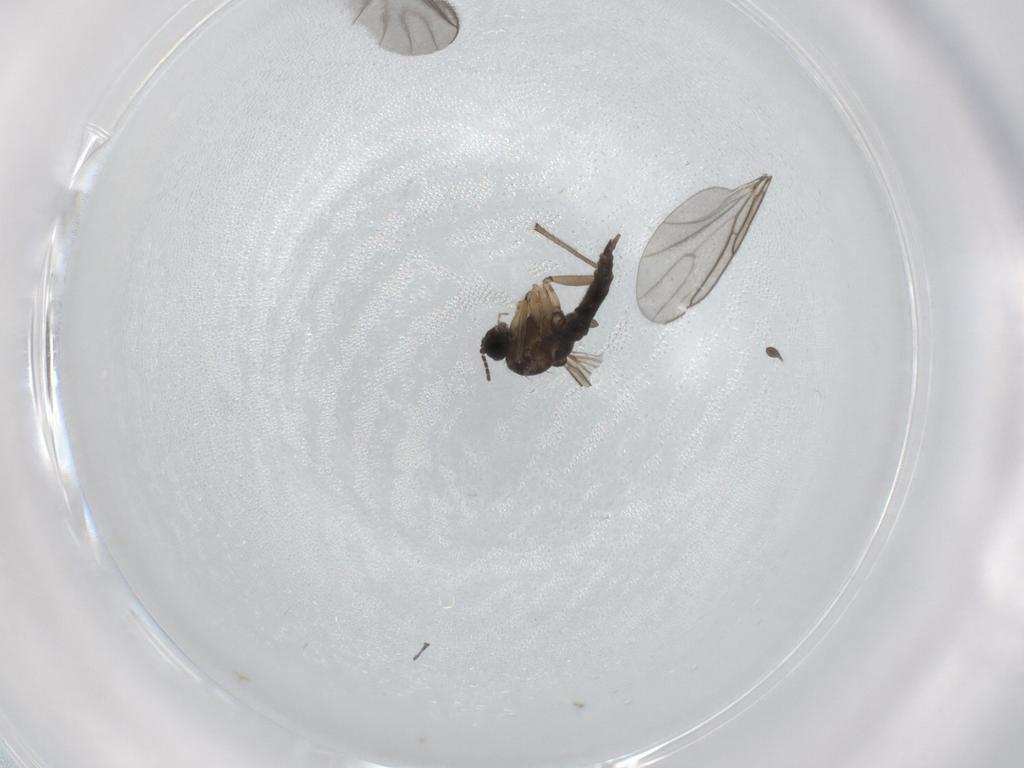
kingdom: Animalia
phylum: Arthropoda
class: Insecta
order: Diptera
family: Sciaridae
